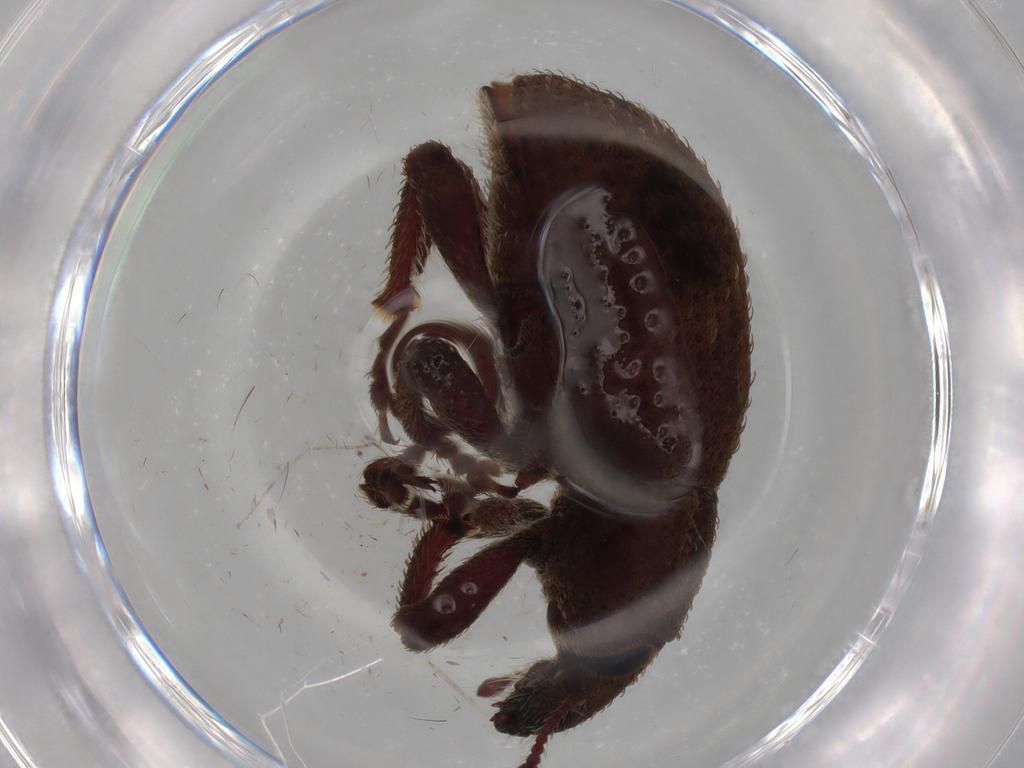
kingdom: Animalia
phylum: Arthropoda
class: Insecta
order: Coleoptera
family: Curculionidae
